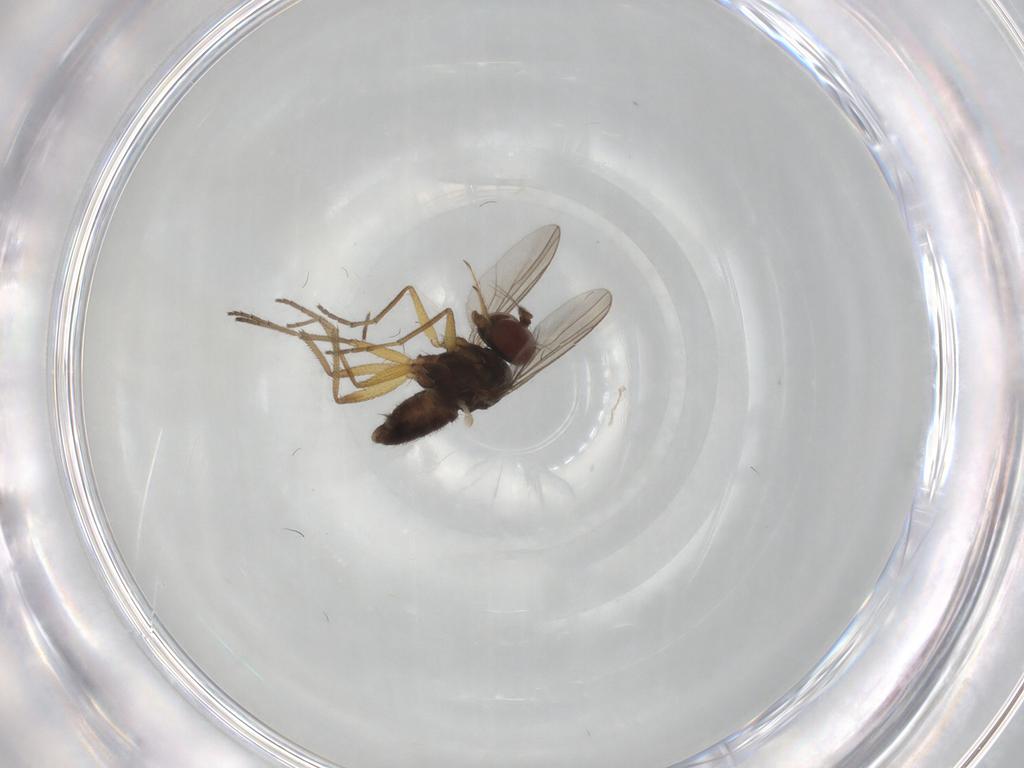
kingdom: Animalia
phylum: Arthropoda
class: Insecta
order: Diptera
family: Dolichopodidae
